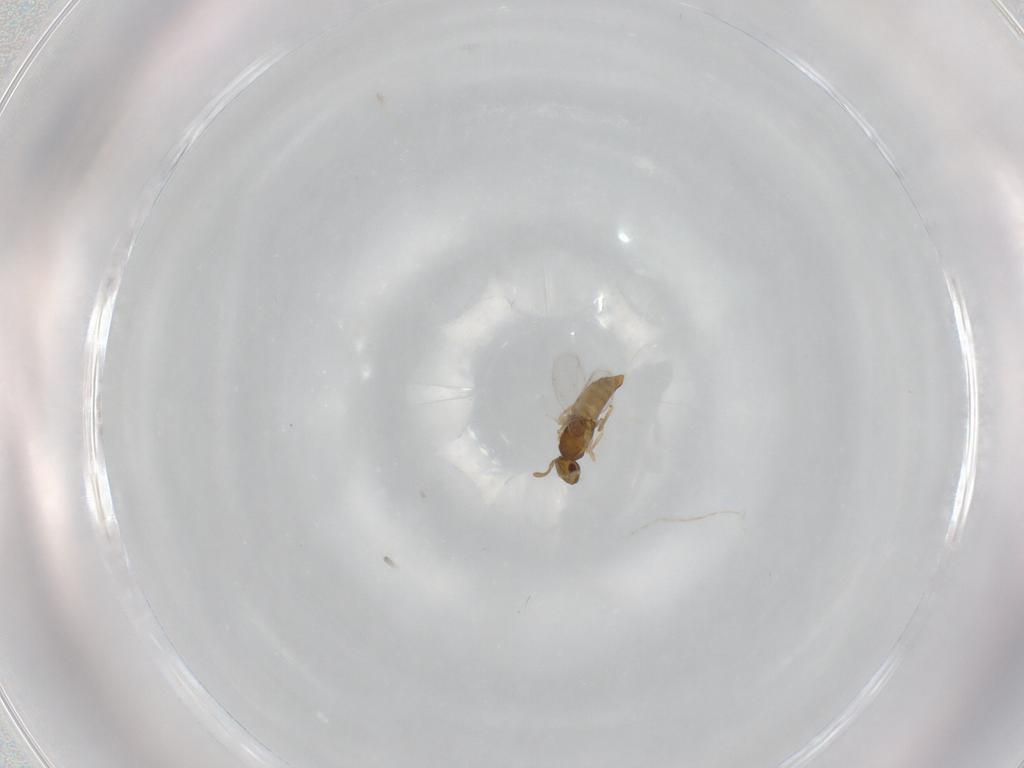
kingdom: Animalia
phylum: Arthropoda
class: Insecta
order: Hymenoptera
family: Encyrtidae
